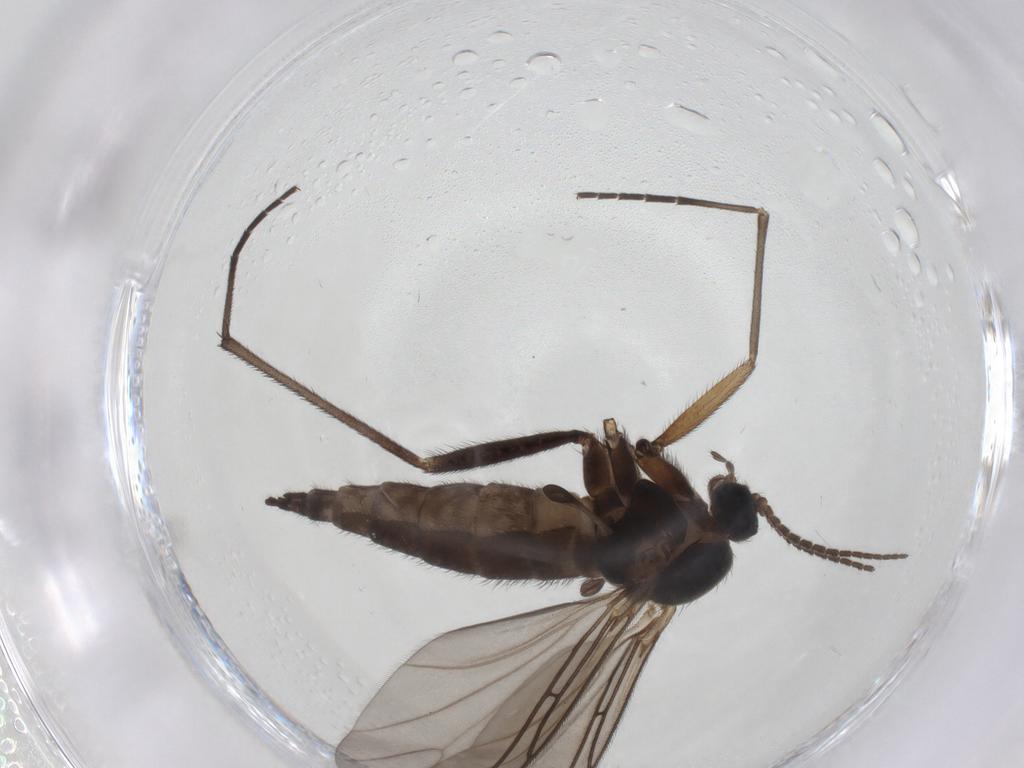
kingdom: Animalia
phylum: Arthropoda
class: Insecta
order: Diptera
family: Sciaridae
